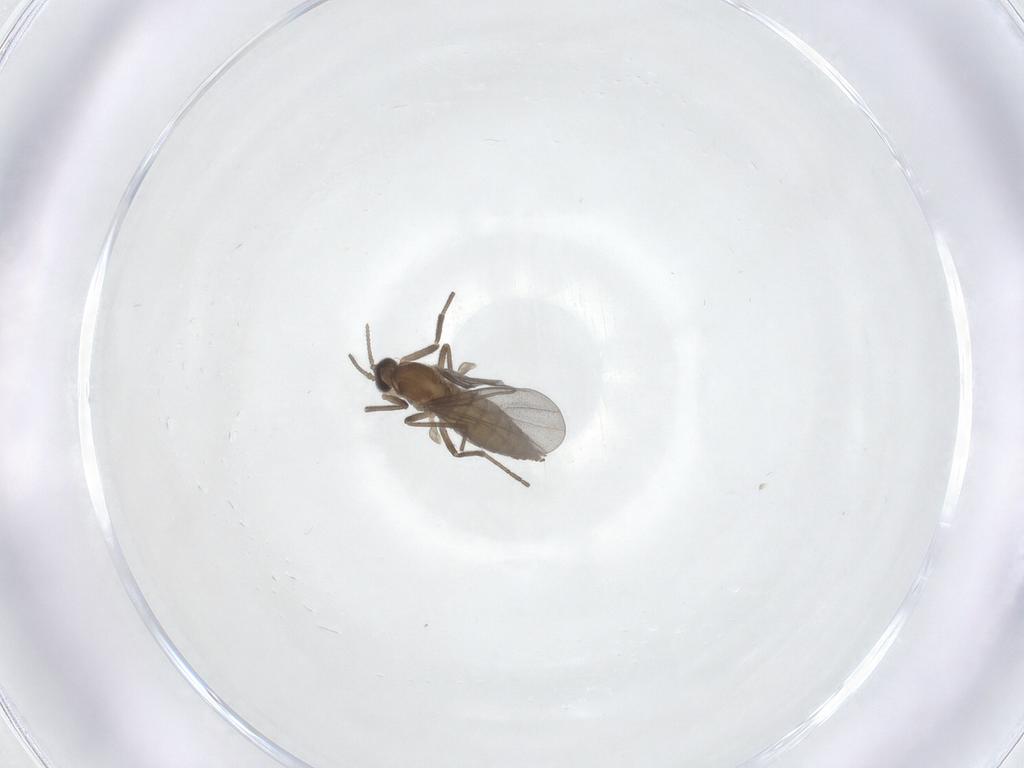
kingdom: Animalia
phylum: Arthropoda
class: Insecta
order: Diptera
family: Cecidomyiidae
